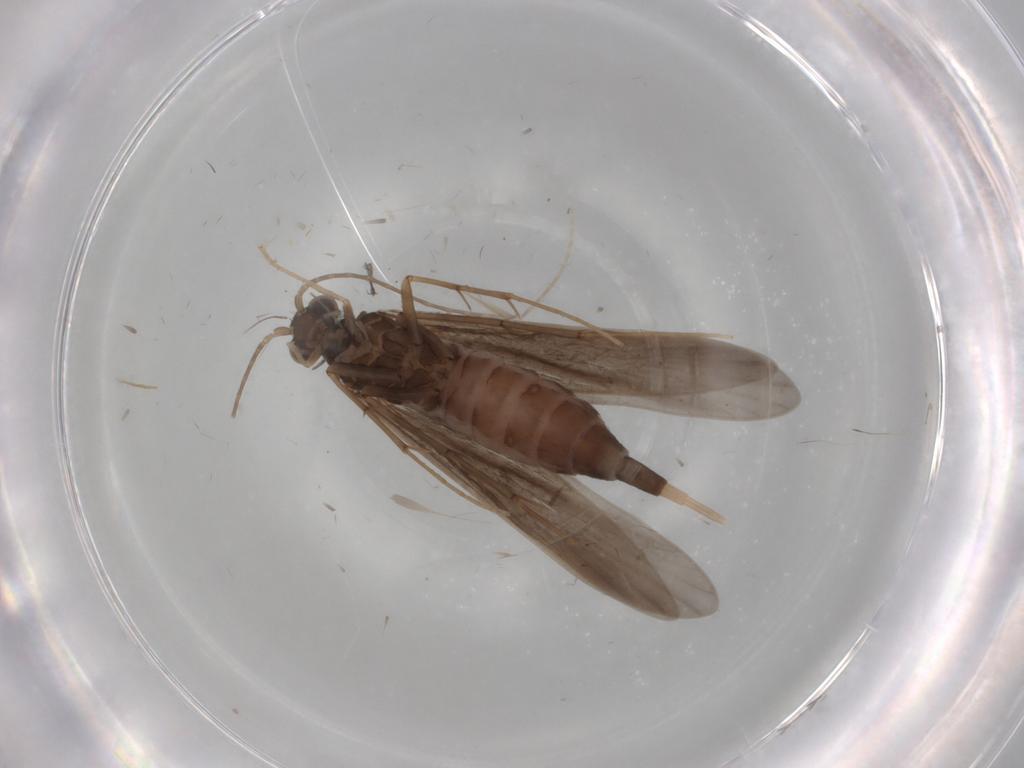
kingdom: Animalia
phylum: Arthropoda
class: Insecta
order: Trichoptera
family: Xiphocentronidae
